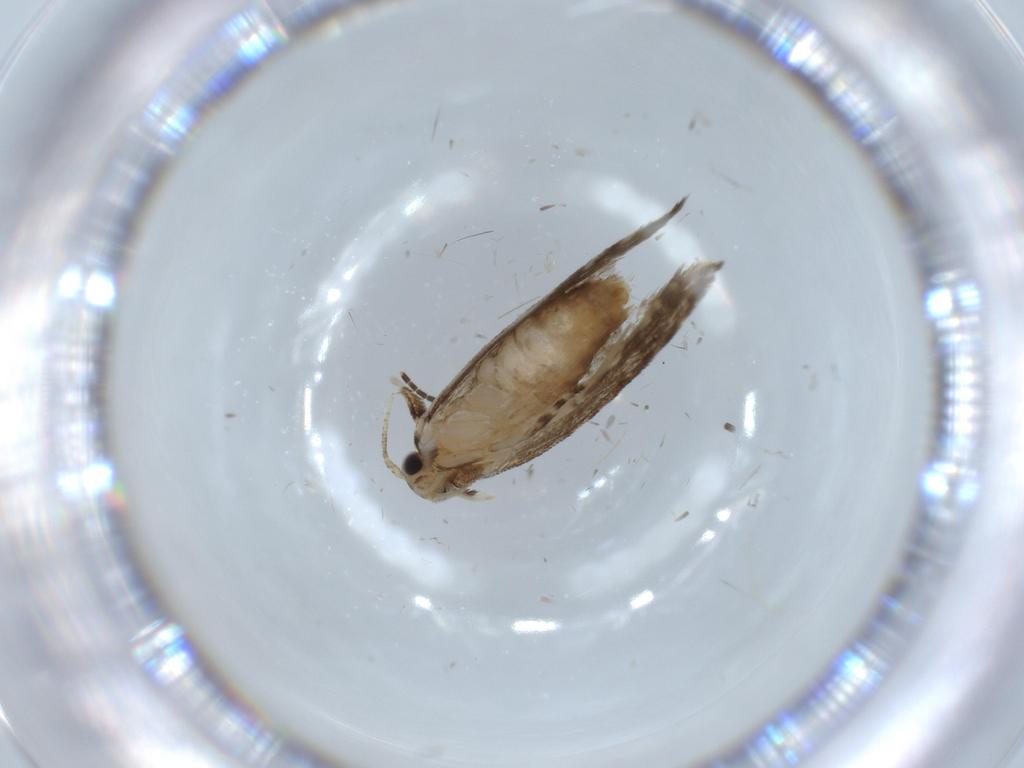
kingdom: Animalia
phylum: Arthropoda
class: Insecta
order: Lepidoptera
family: Tineidae
